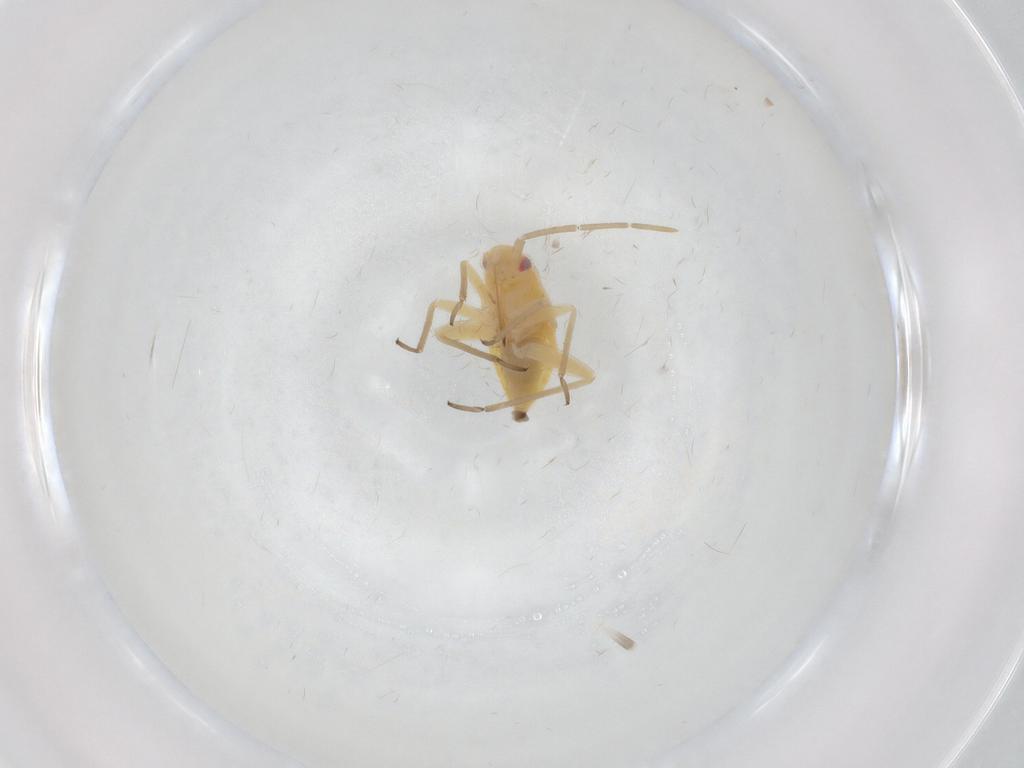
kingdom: Animalia
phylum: Arthropoda
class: Insecta
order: Hemiptera
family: Miridae
